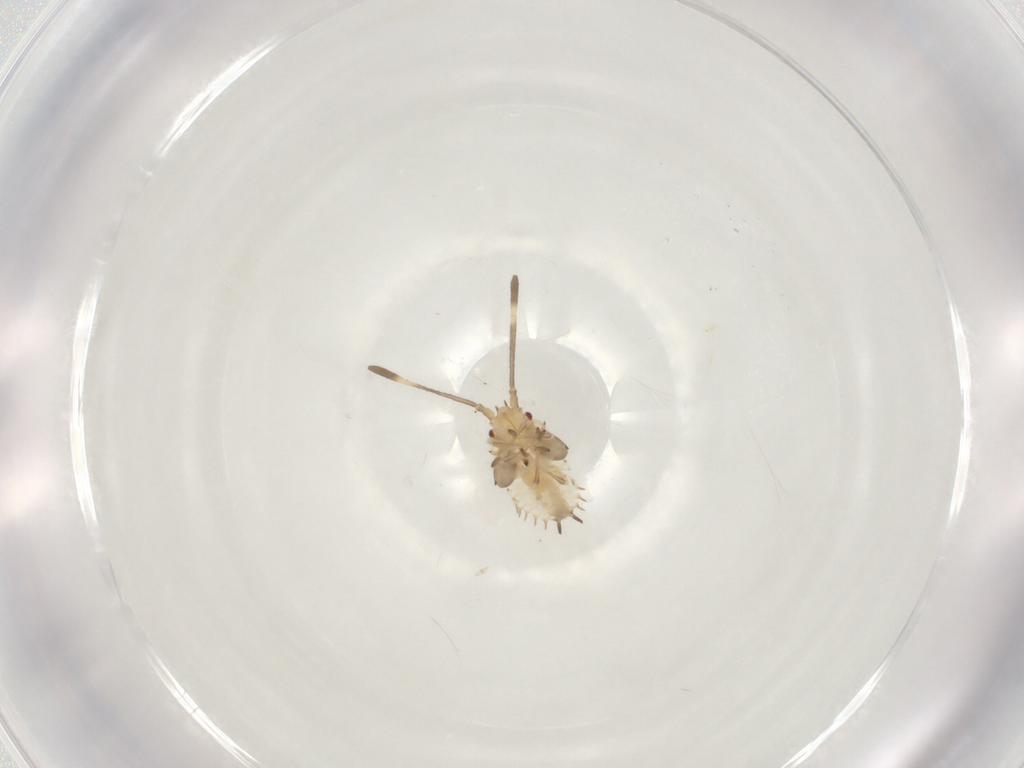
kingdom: Animalia
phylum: Arthropoda
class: Insecta
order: Hemiptera
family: Tingidae
